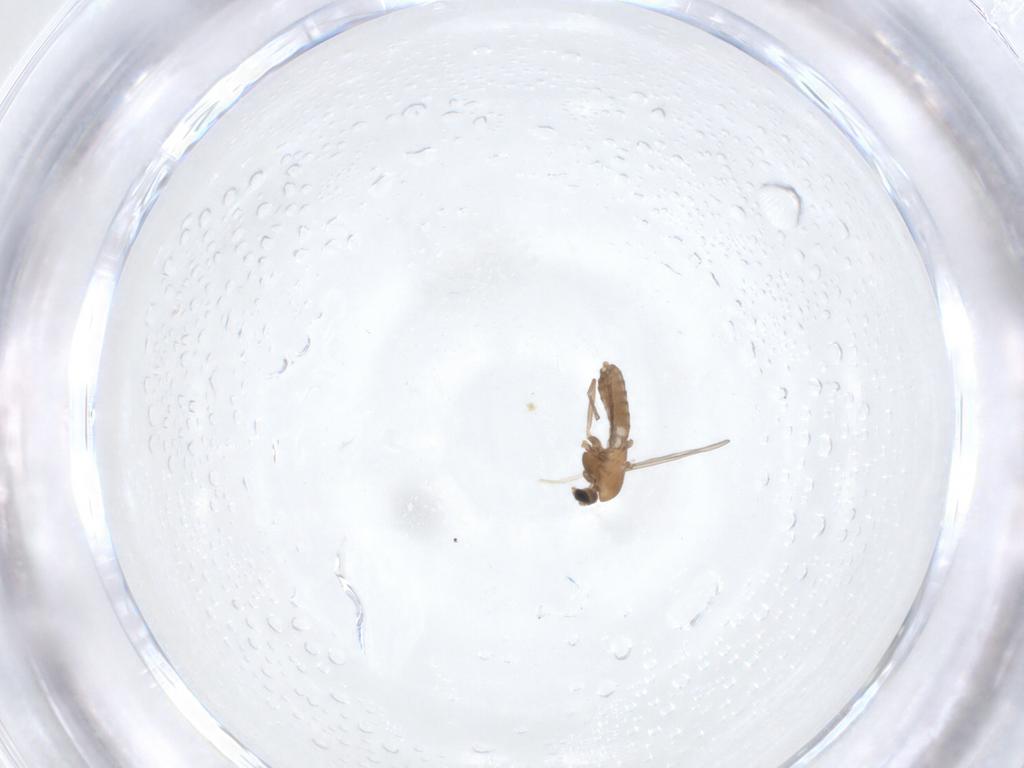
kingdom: Animalia
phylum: Arthropoda
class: Insecta
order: Diptera
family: Chironomidae
